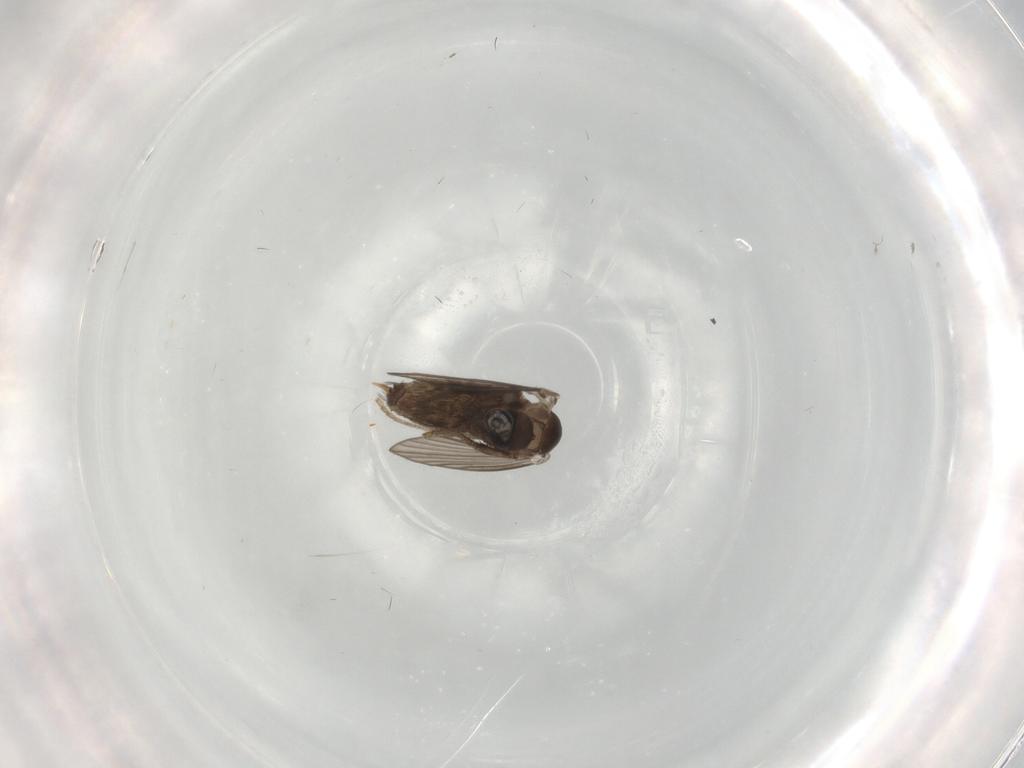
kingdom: Animalia
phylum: Arthropoda
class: Insecta
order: Diptera
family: Psychodidae
